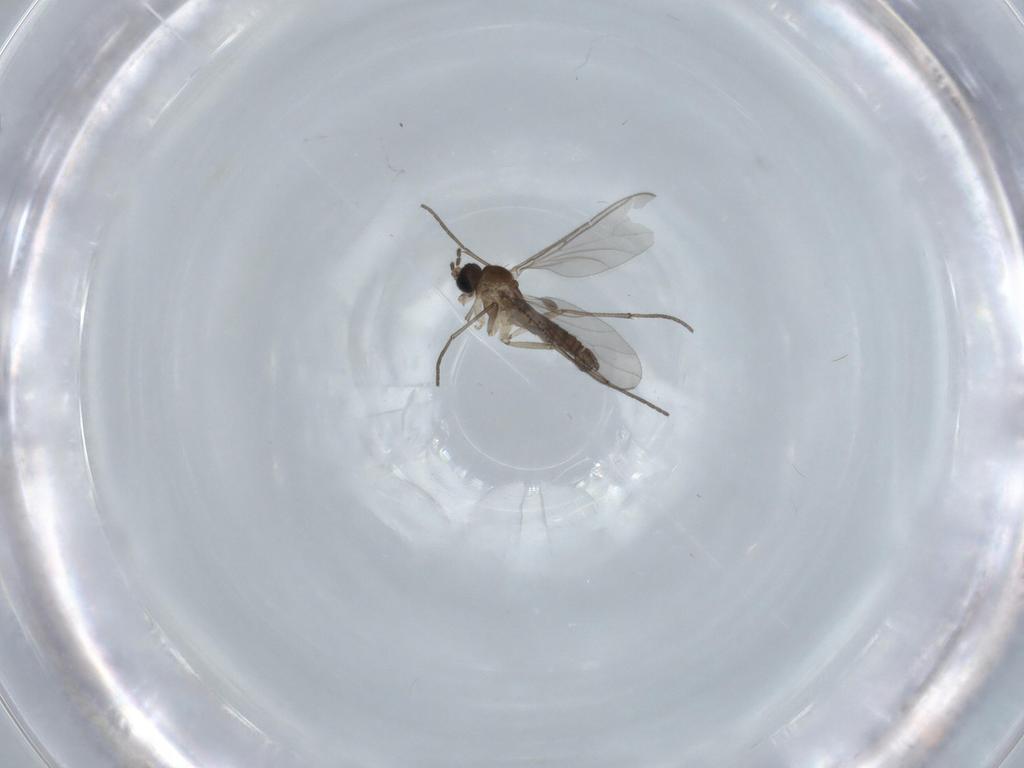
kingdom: Animalia
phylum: Arthropoda
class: Insecta
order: Diptera
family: Sciaridae
